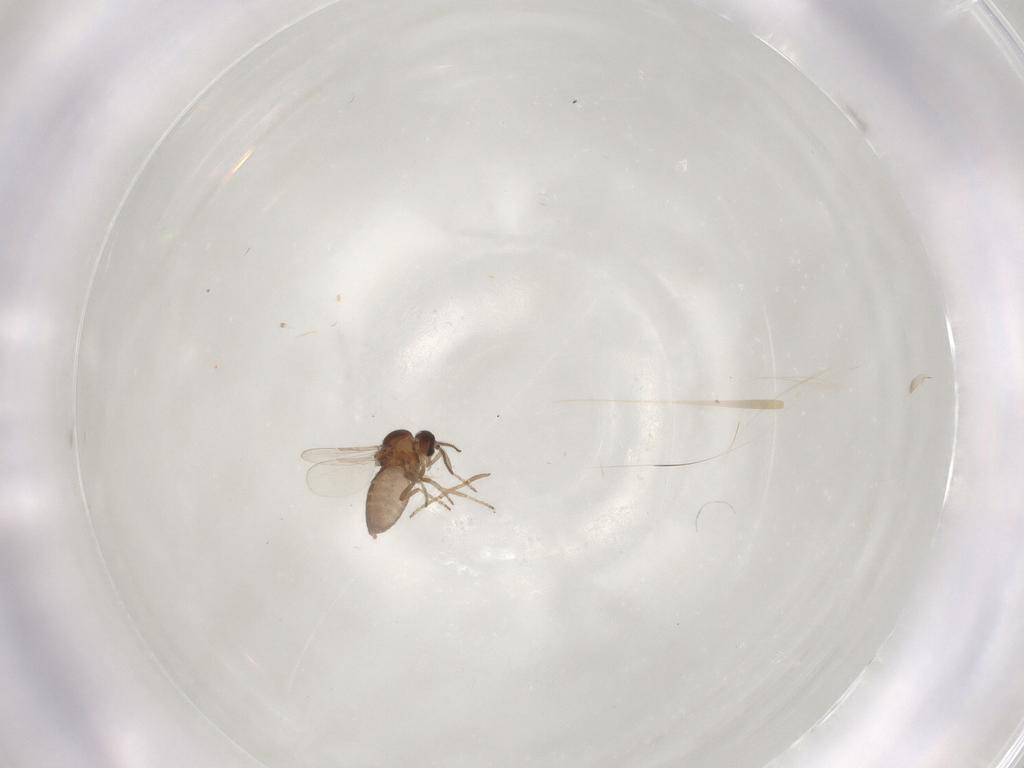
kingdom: Animalia
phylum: Arthropoda
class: Insecta
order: Diptera
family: Ceratopogonidae
